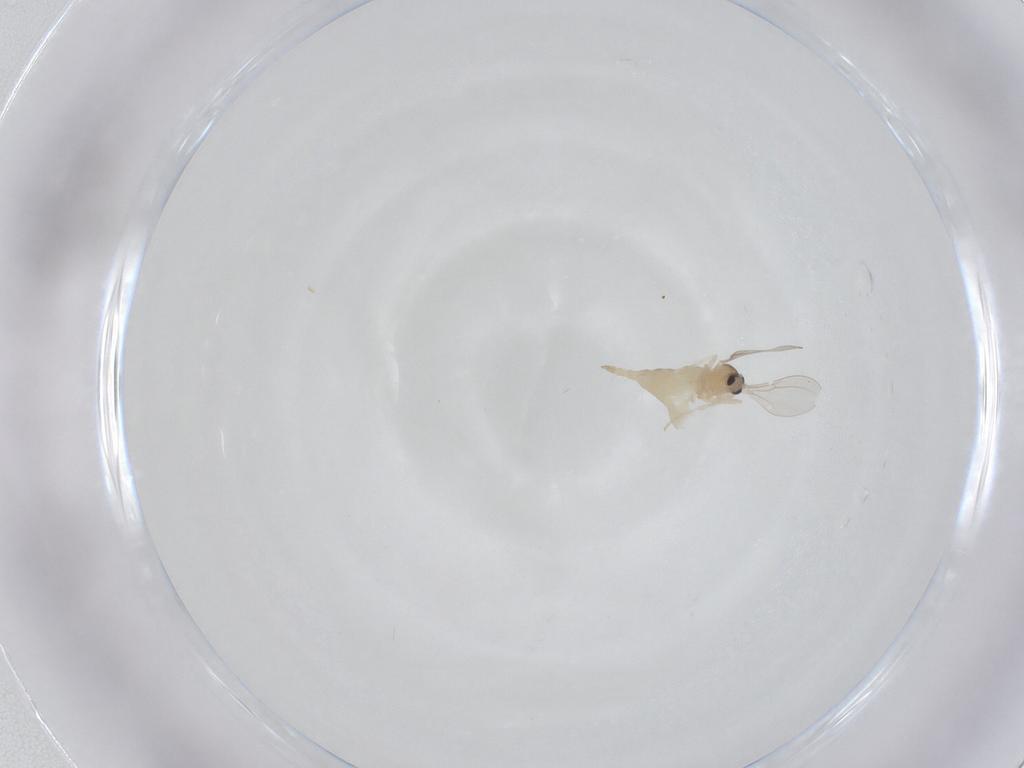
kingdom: Animalia
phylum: Arthropoda
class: Insecta
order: Diptera
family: Cecidomyiidae
